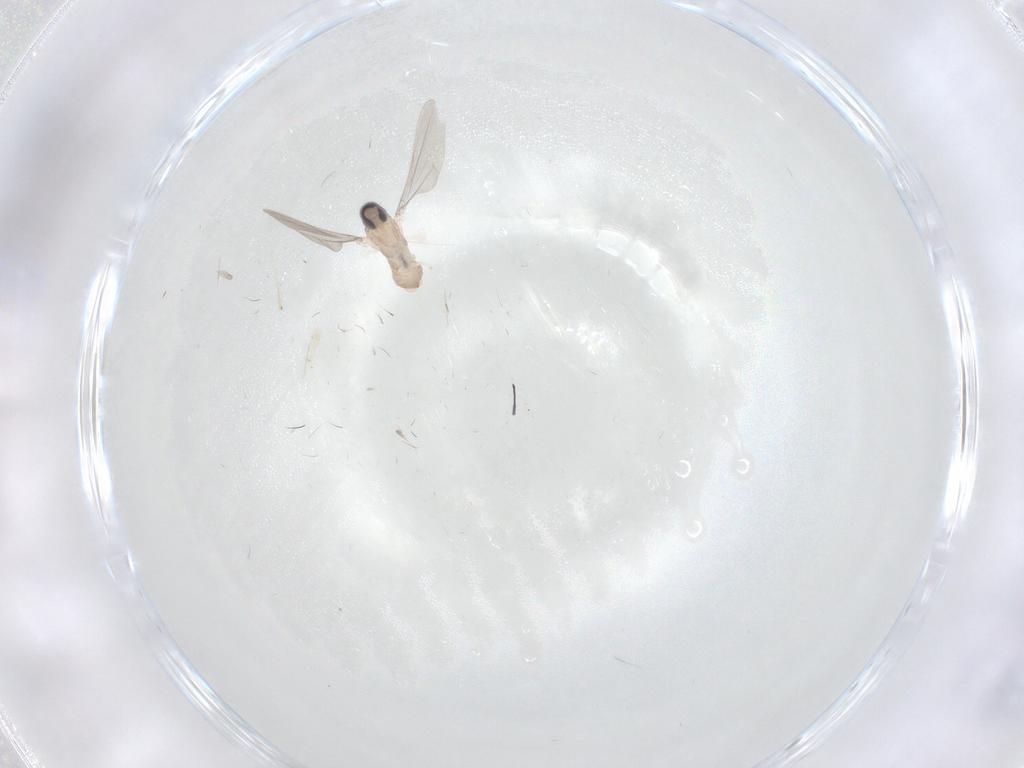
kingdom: Animalia
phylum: Arthropoda
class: Insecta
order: Diptera
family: Cecidomyiidae
